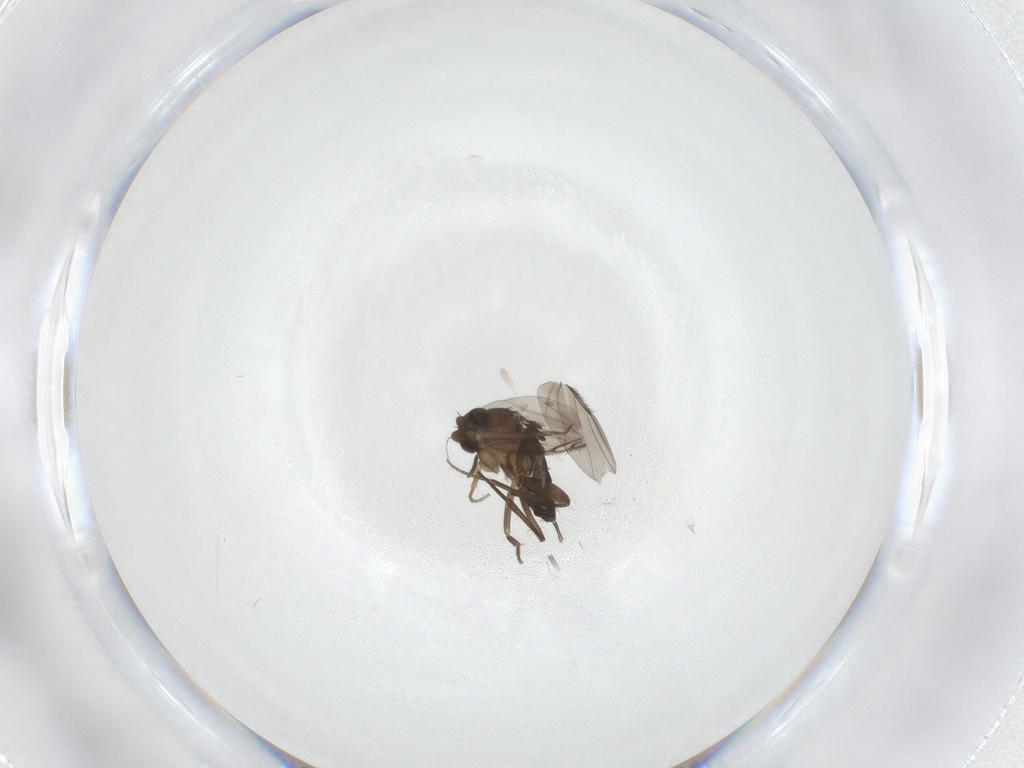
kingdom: Animalia
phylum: Arthropoda
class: Insecta
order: Diptera
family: Phoridae
